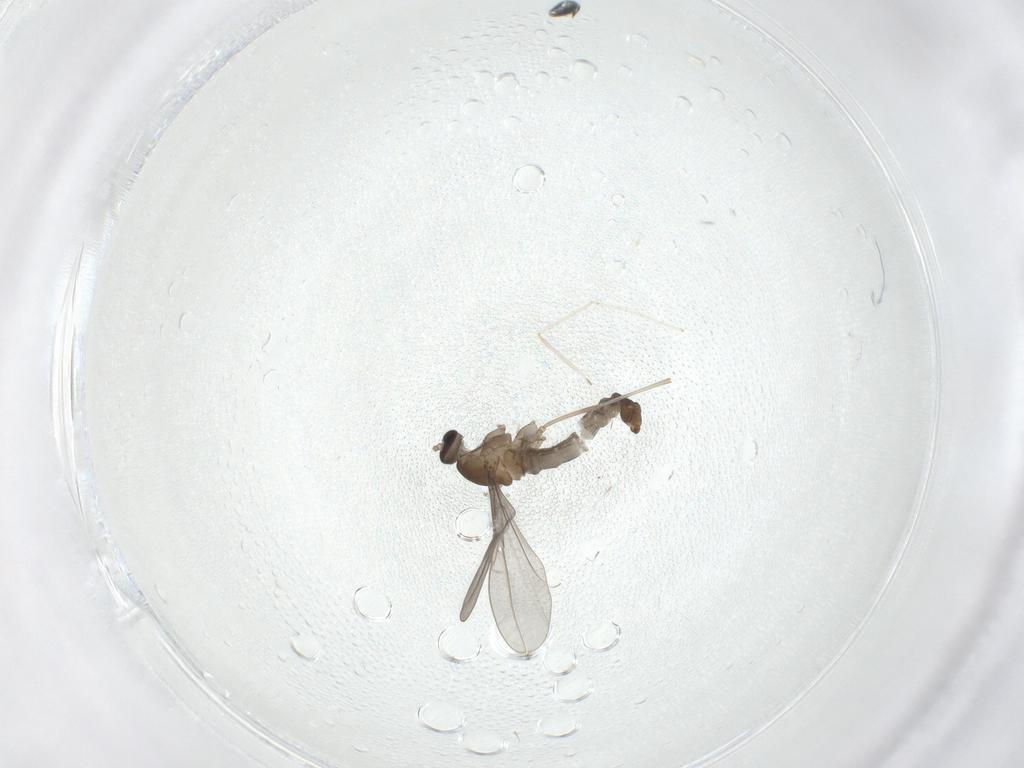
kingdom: Animalia
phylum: Arthropoda
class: Insecta
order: Diptera
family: Cecidomyiidae
